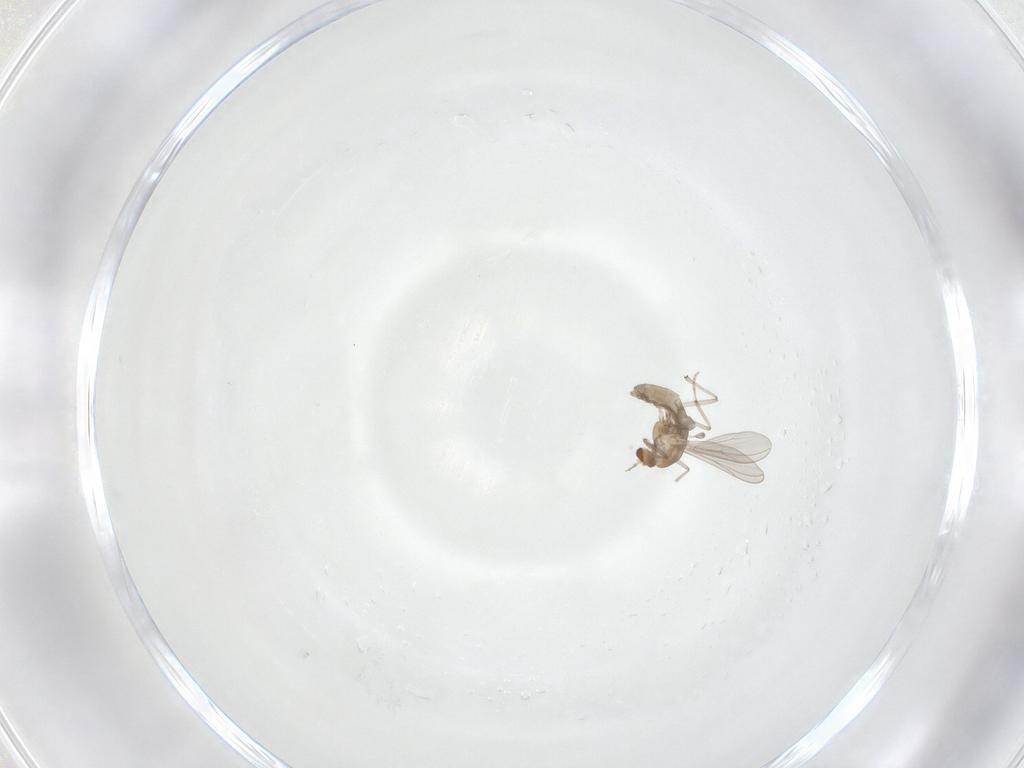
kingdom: Animalia
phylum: Arthropoda
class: Insecta
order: Diptera
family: Chironomidae
